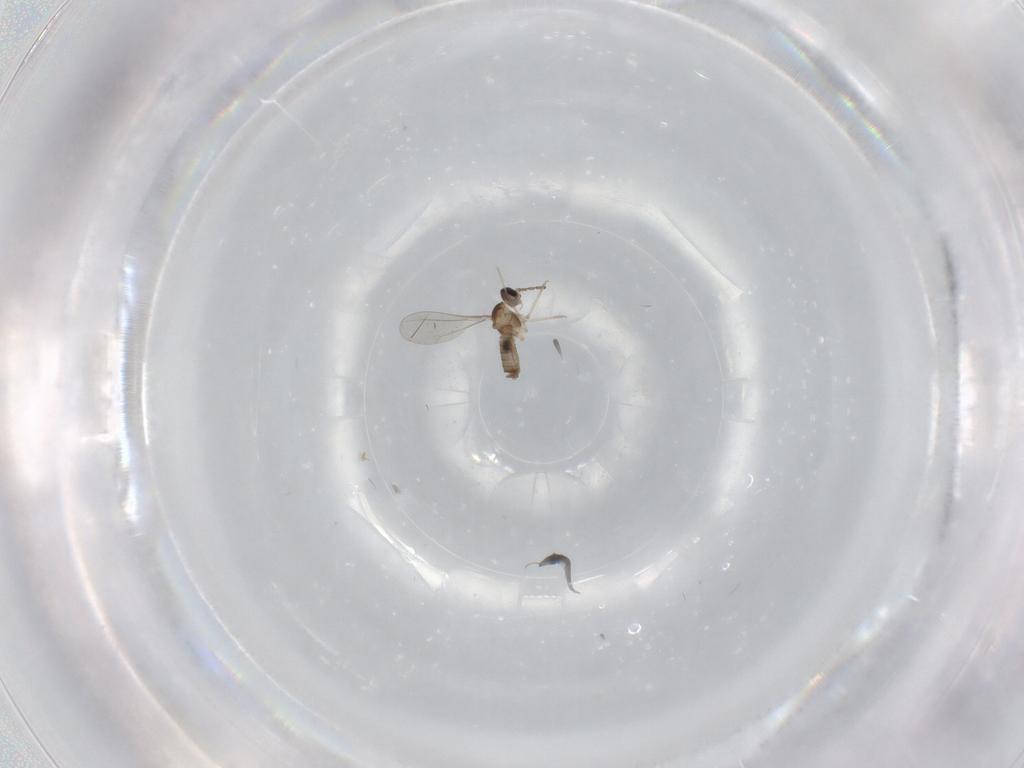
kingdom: Animalia
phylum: Arthropoda
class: Insecta
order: Diptera
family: Chironomidae
